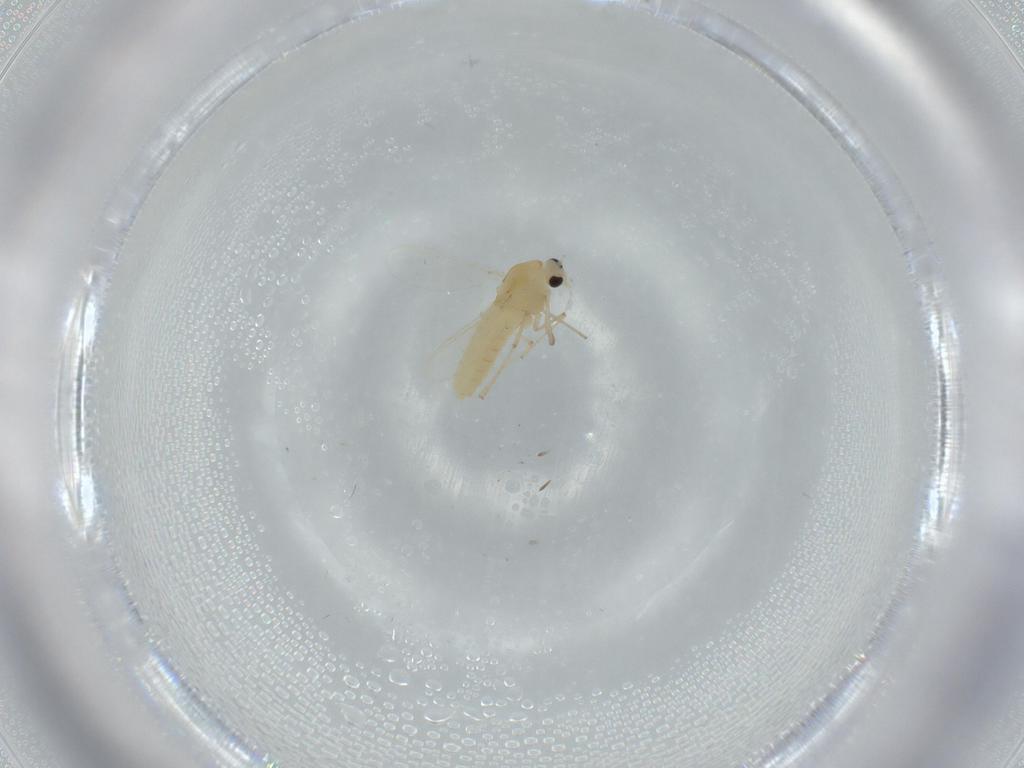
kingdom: Animalia
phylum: Arthropoda
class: Insecta
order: Diptera
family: Chironomidae
